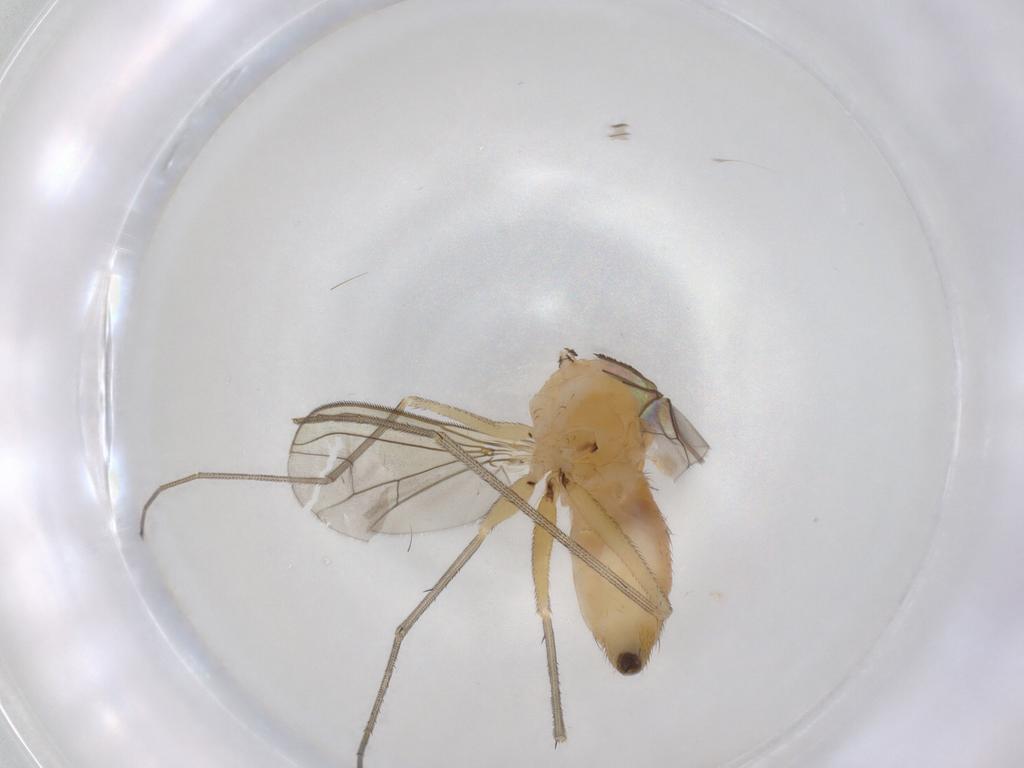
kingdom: Animalia
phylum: Arthropoda
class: Insecta
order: Diptera
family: Dolichopodidae
